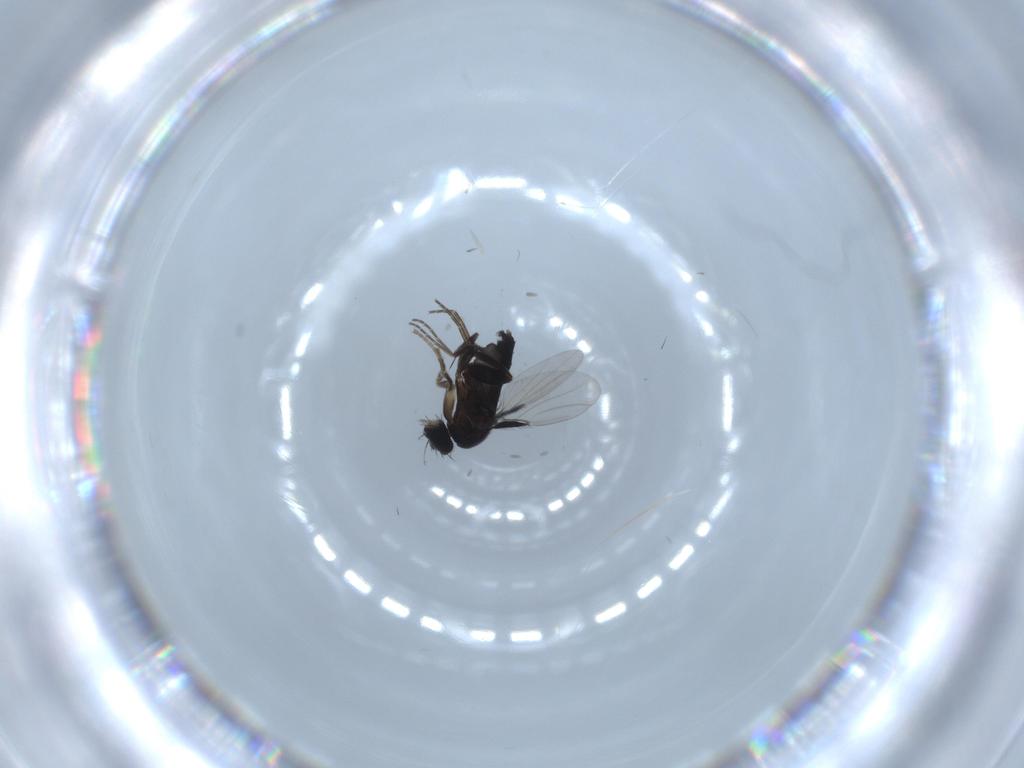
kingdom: Animalia
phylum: Arthropoda
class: Insecta
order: Diptera
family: Phoridae
